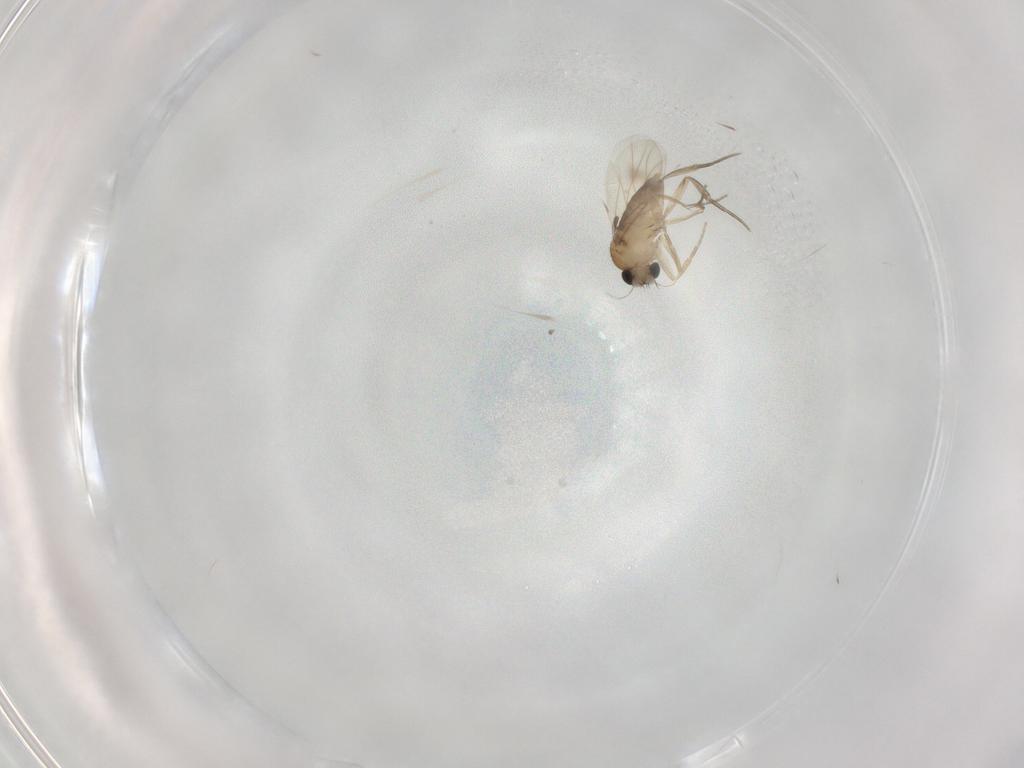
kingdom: Animalia
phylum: Arthropoda
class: Insecta
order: Diptera
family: Phoridae
